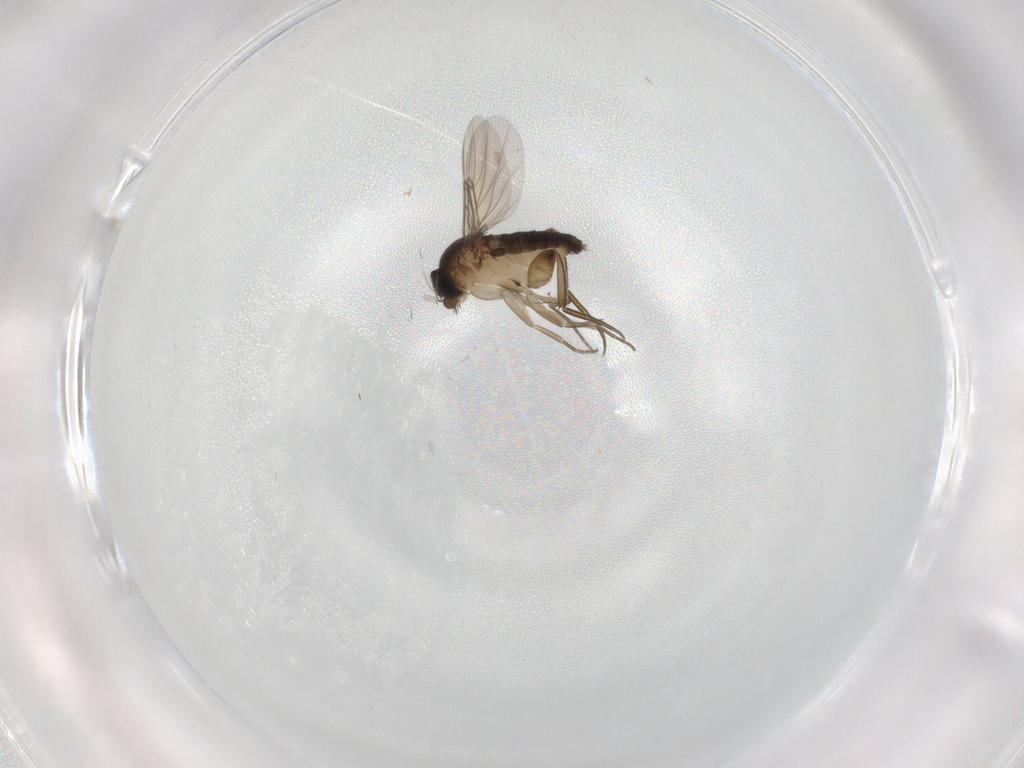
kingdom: Animalia
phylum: Arthropoda
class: Insecta
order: Diptera
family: Phoridae
